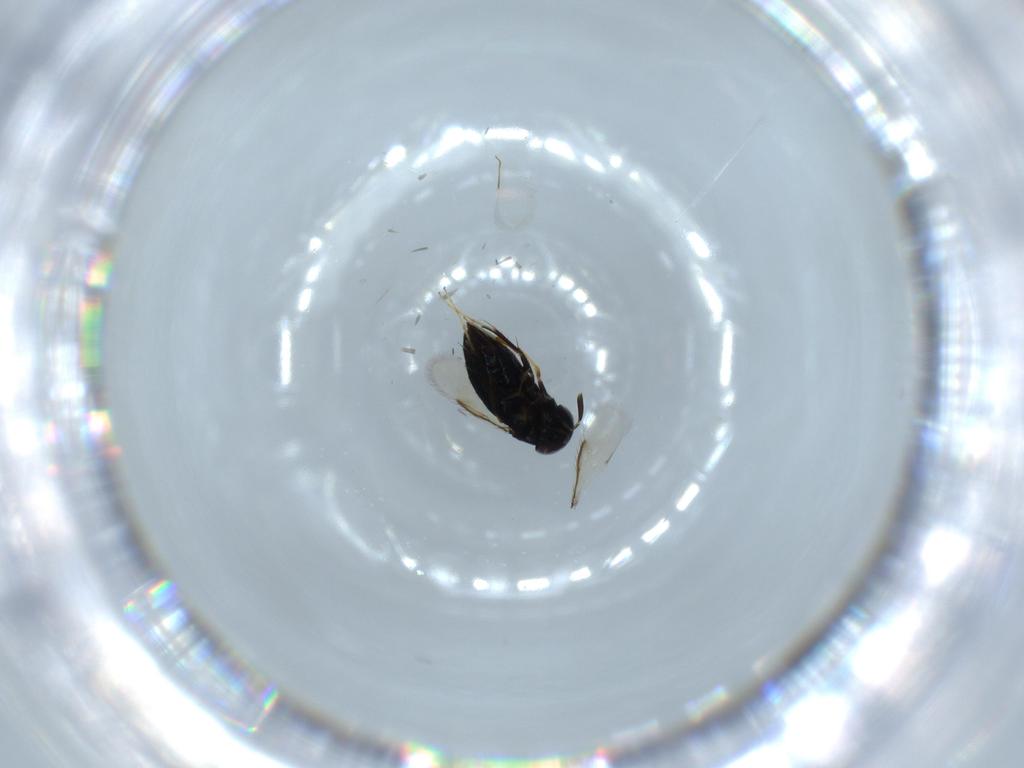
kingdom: Animalia
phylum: Arthropoda
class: Insecta
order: Hymenoptera
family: Signiphoridae
